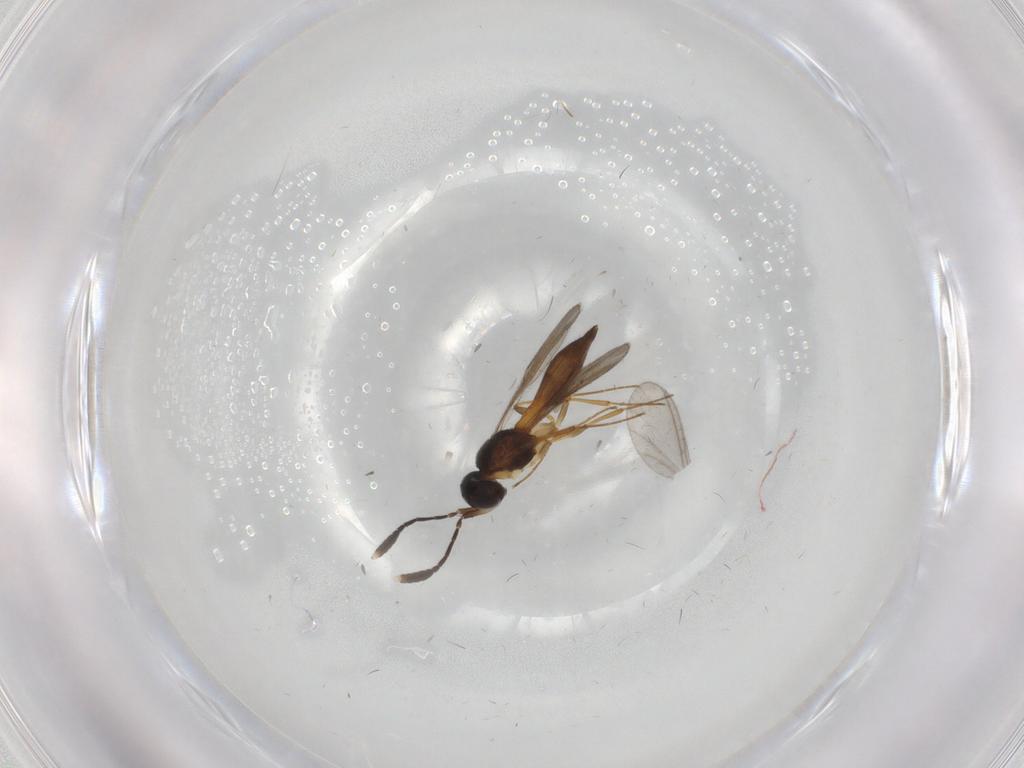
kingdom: Animalia
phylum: Arthropoda
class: Insecta
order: Hymenoptera
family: Scelionidae
